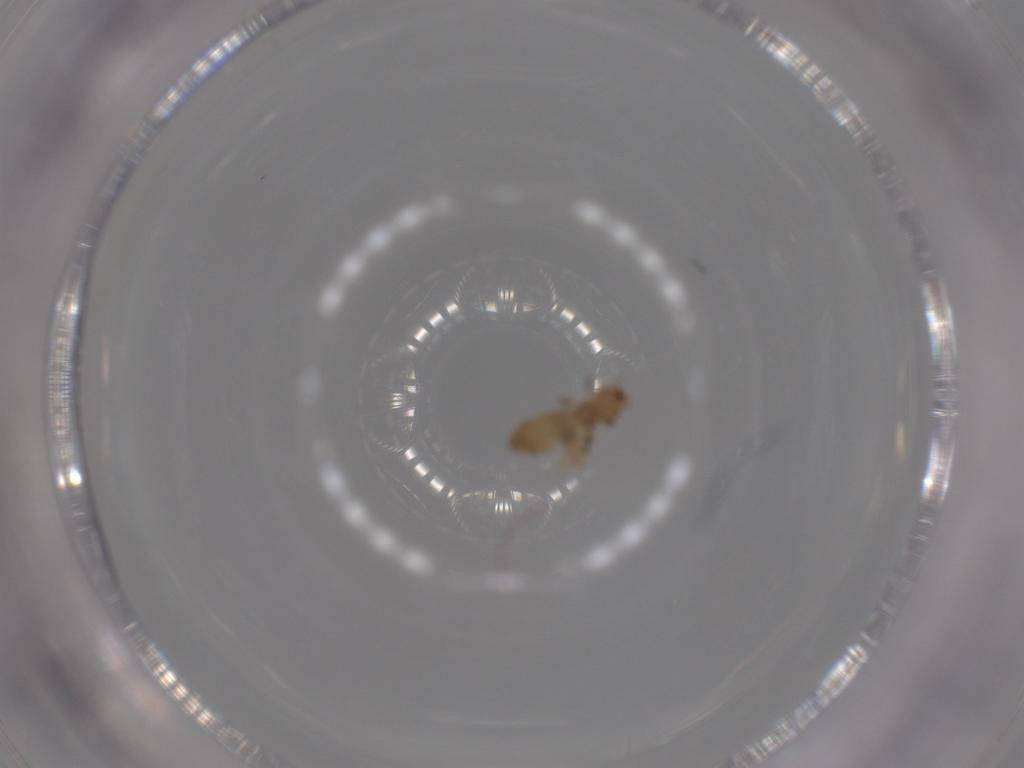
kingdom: Animalia
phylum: Arthropoda
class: Insecta
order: Psocodea
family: Liposcelididae
